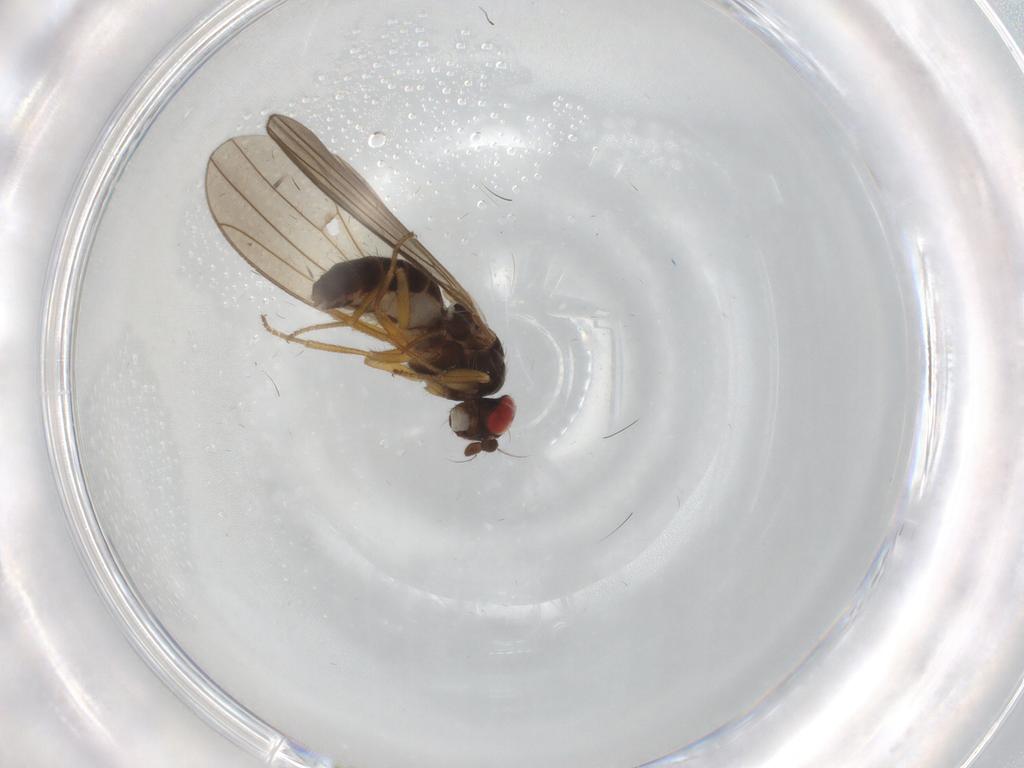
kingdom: Animalia
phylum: Arthropoda
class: Insecta
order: Diptera
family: Drosophilidae
